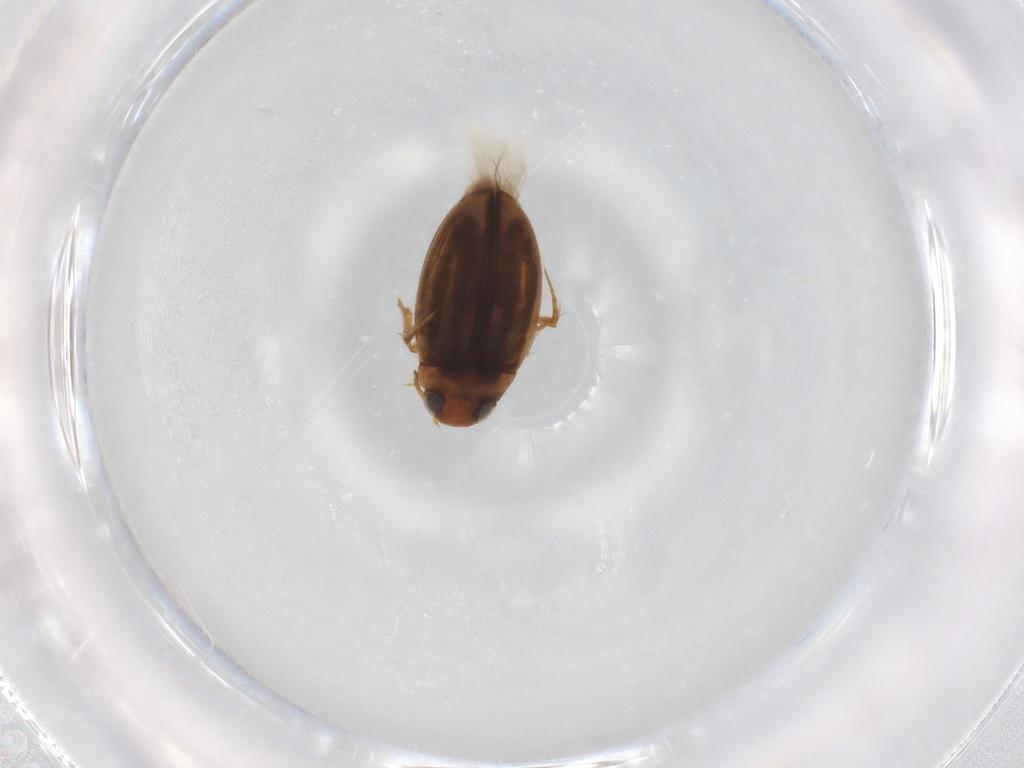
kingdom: Animalia
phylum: Arthropoda
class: Insecta
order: Coleoptera
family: Dytiscidae
